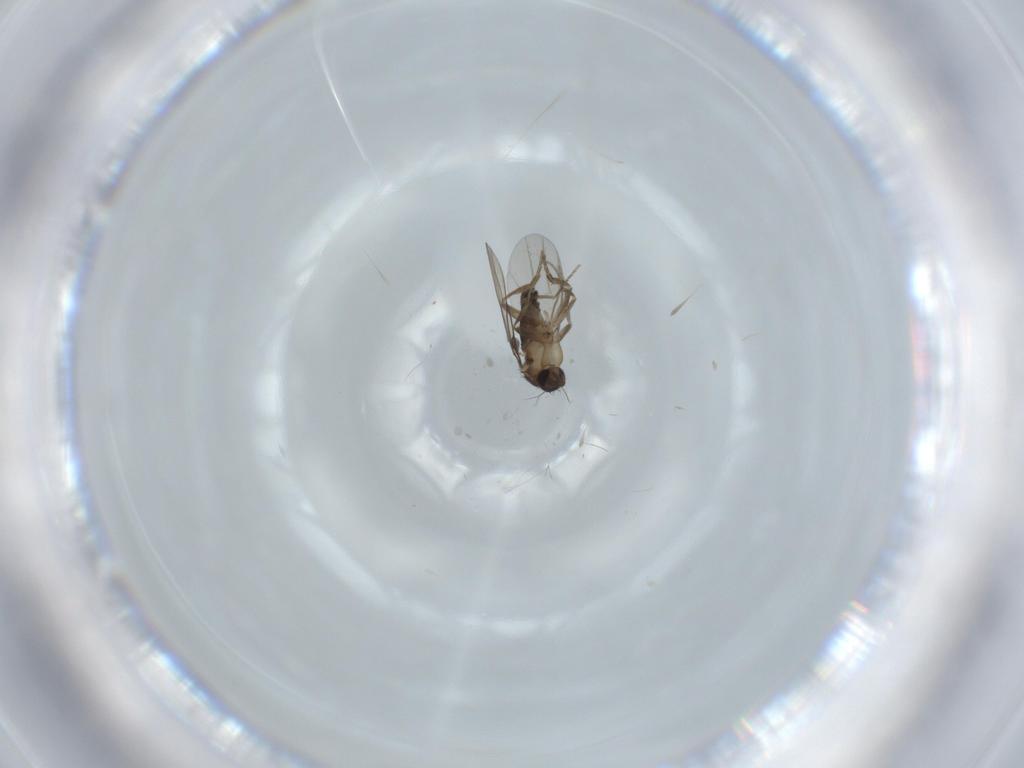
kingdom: Animalia
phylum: Arthropoda
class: Insecta
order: Diptera
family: Phoridae
